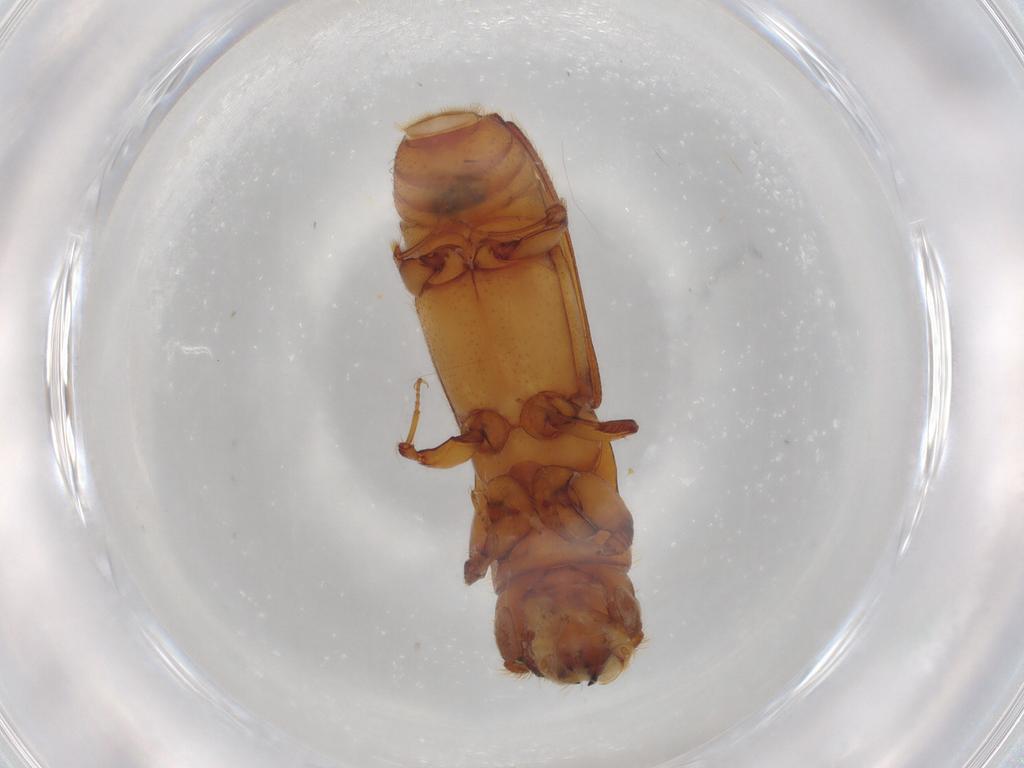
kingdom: Animalia
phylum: Arthropoda
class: Insecta
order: Coleoptera
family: Curculionidae
